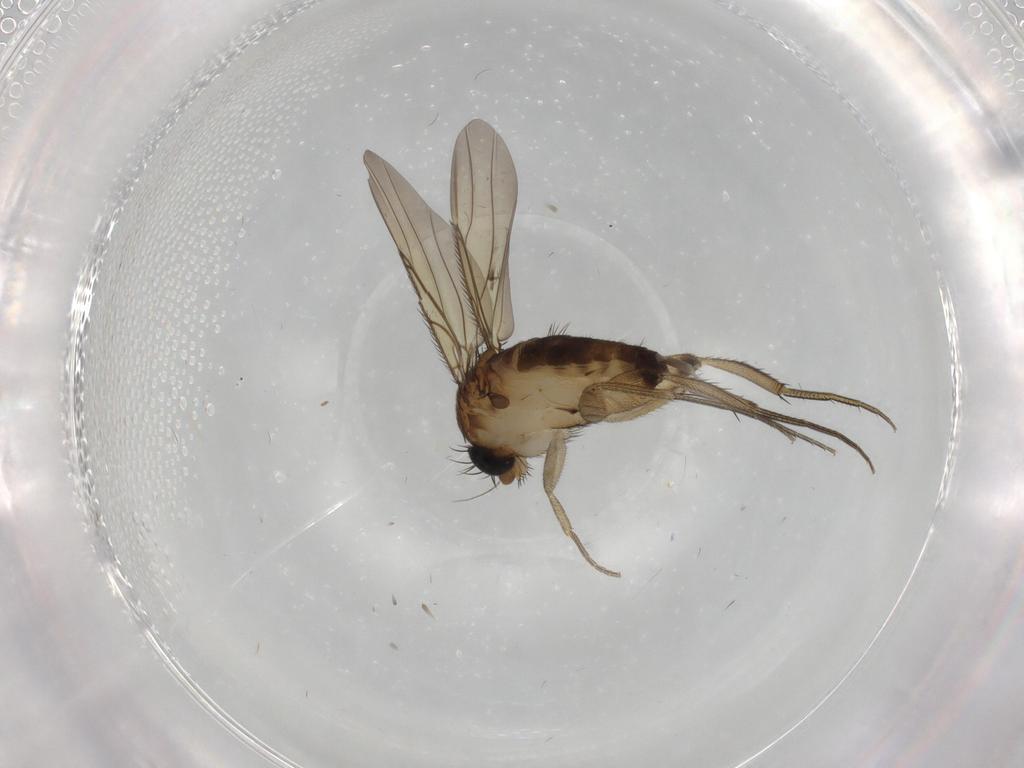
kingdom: Animalia
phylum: Arthropoda
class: Insecta
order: Diptera
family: Phoridae
